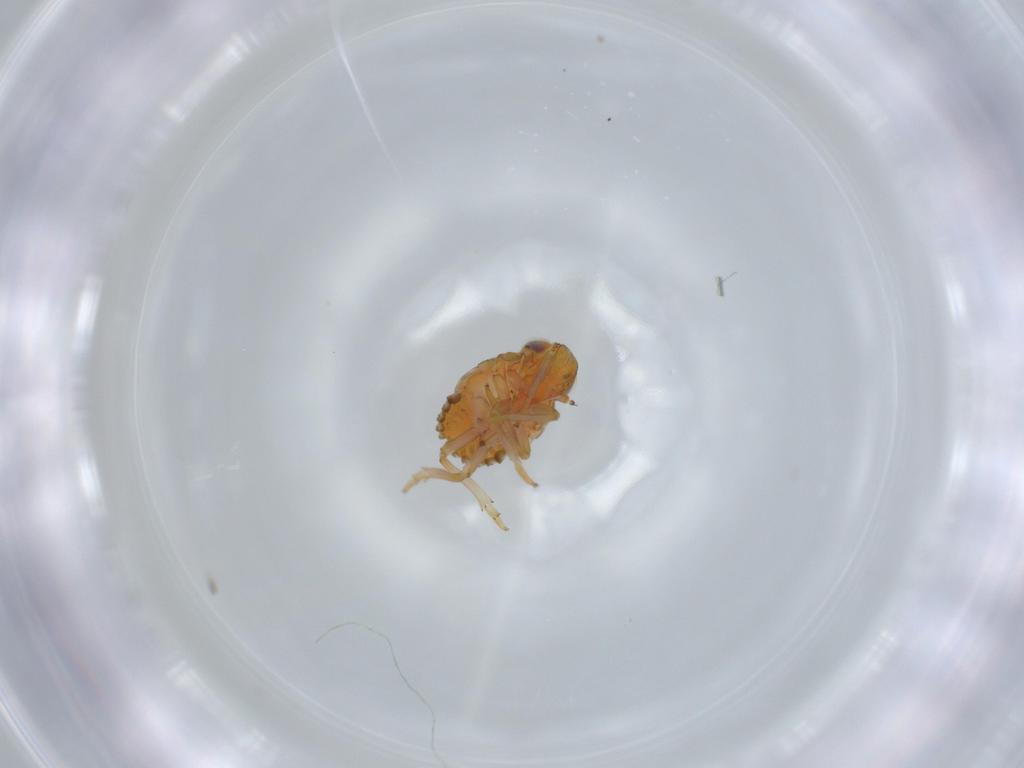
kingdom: Animalia
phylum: Arthropoda
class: Insecta
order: Hemiptera
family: Issidae
